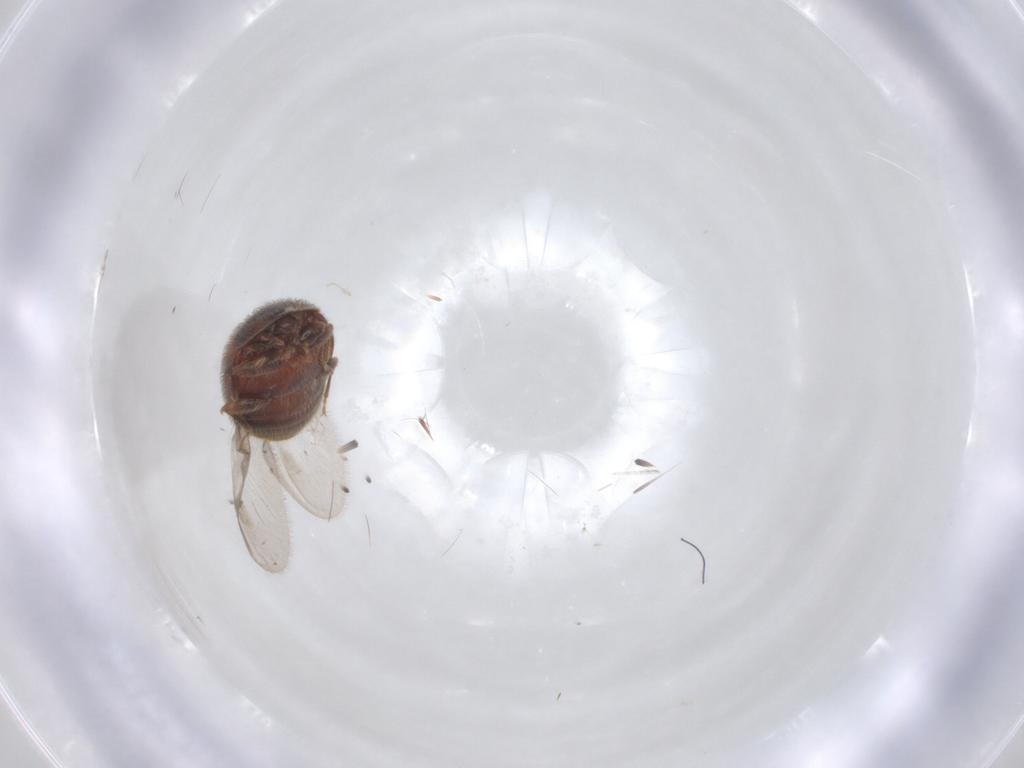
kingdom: Animalia
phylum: Arthropoda
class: Insecta
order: Coleoptera
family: Corylophidae
